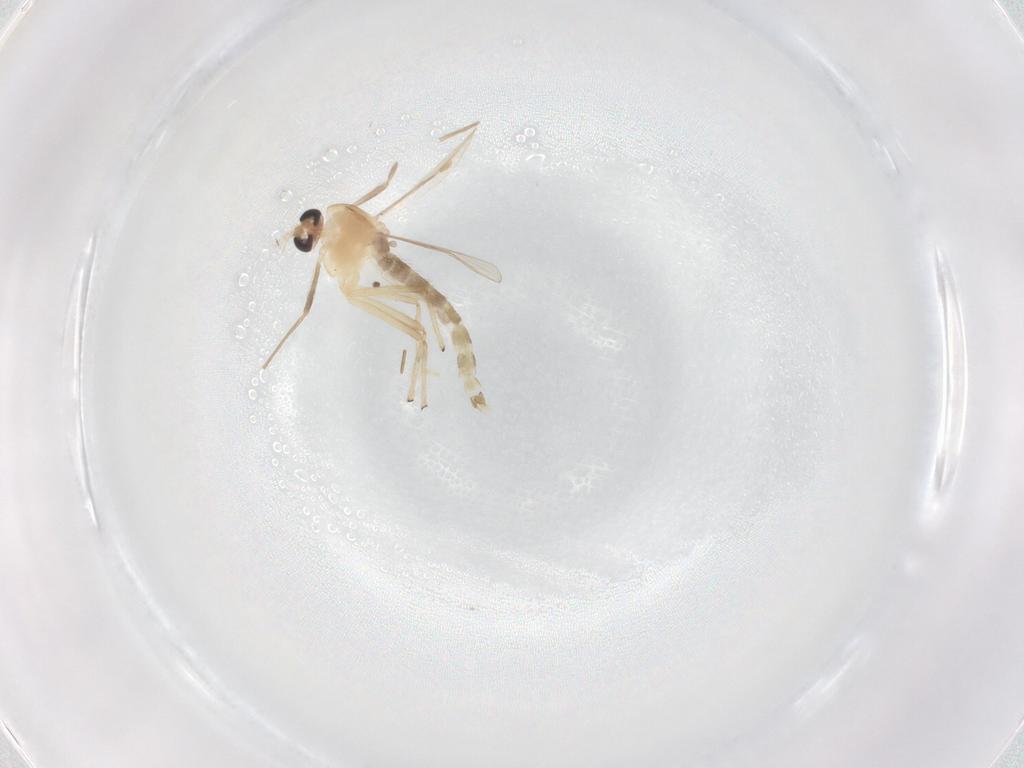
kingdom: Animalia
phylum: Arthropoda
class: Insecta
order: Diptera
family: Chironomidae
